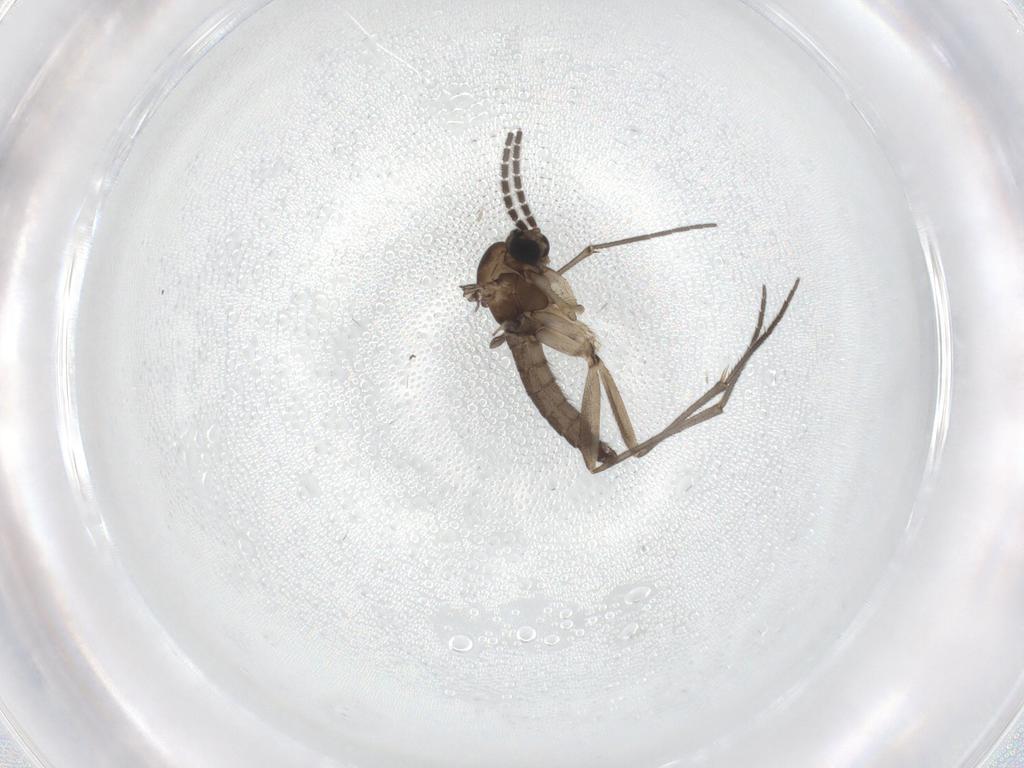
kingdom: Animalia
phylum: Arthropoda
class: Insecta
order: Diptera
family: Sciaridae
